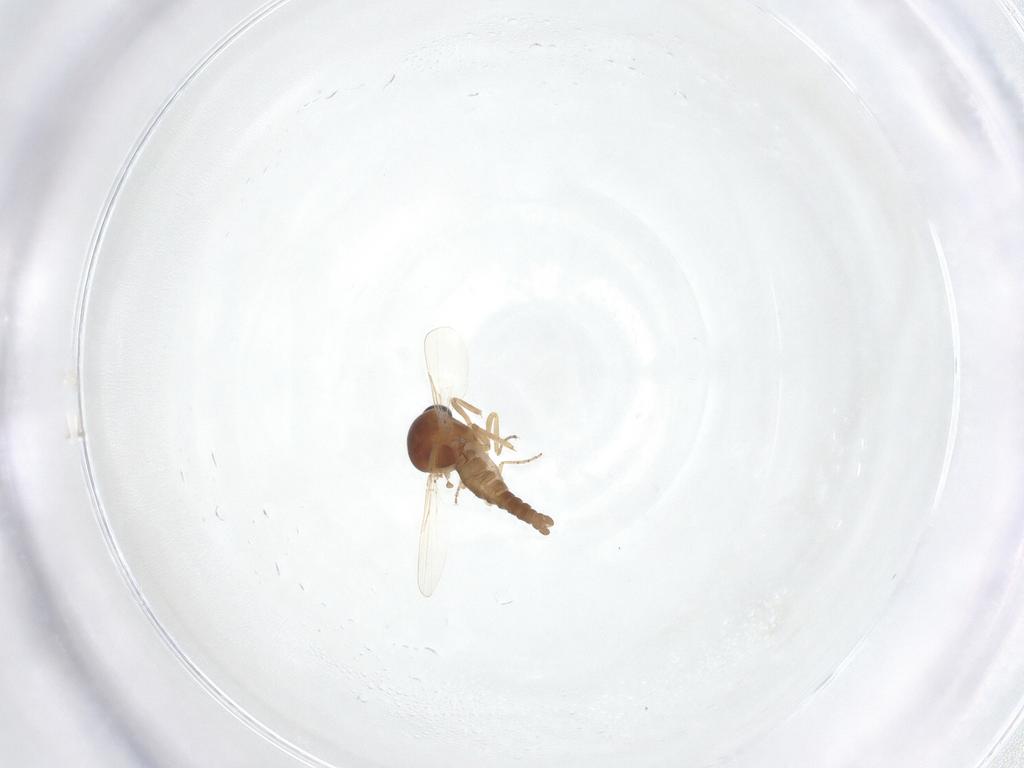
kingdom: Animalia
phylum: Arthropoda
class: Insecta
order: Diptera
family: Ceratopogonidae
